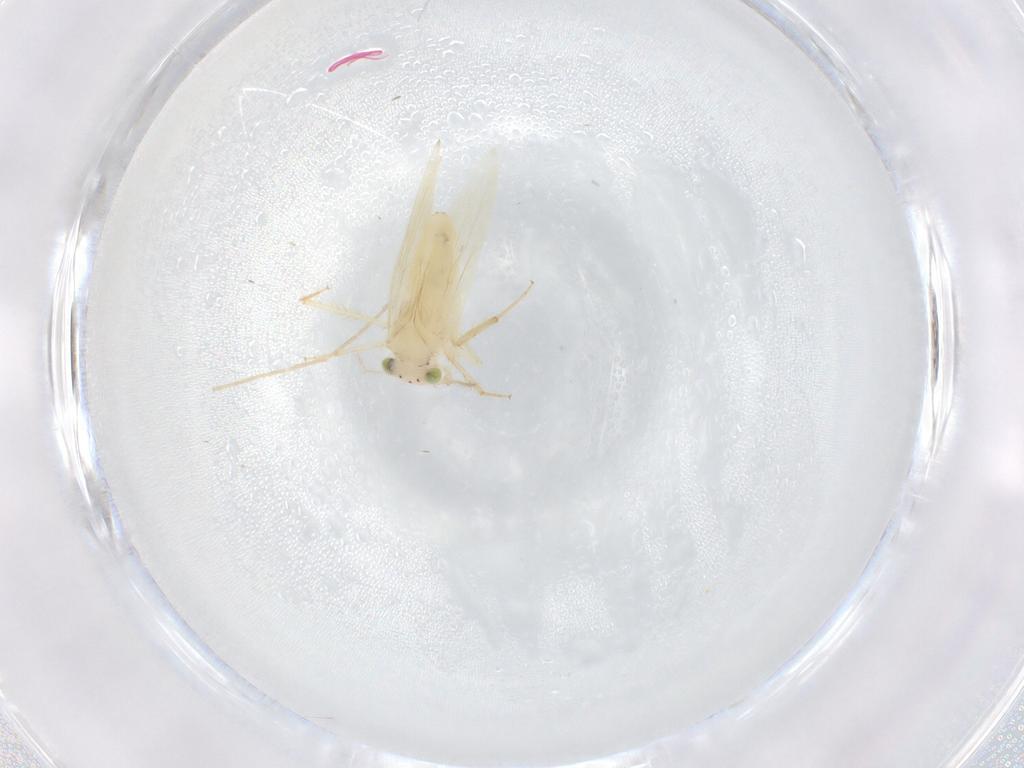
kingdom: Animalia
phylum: Arthropoda
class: Insecta
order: Psocodea
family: Lepidopsocidae
